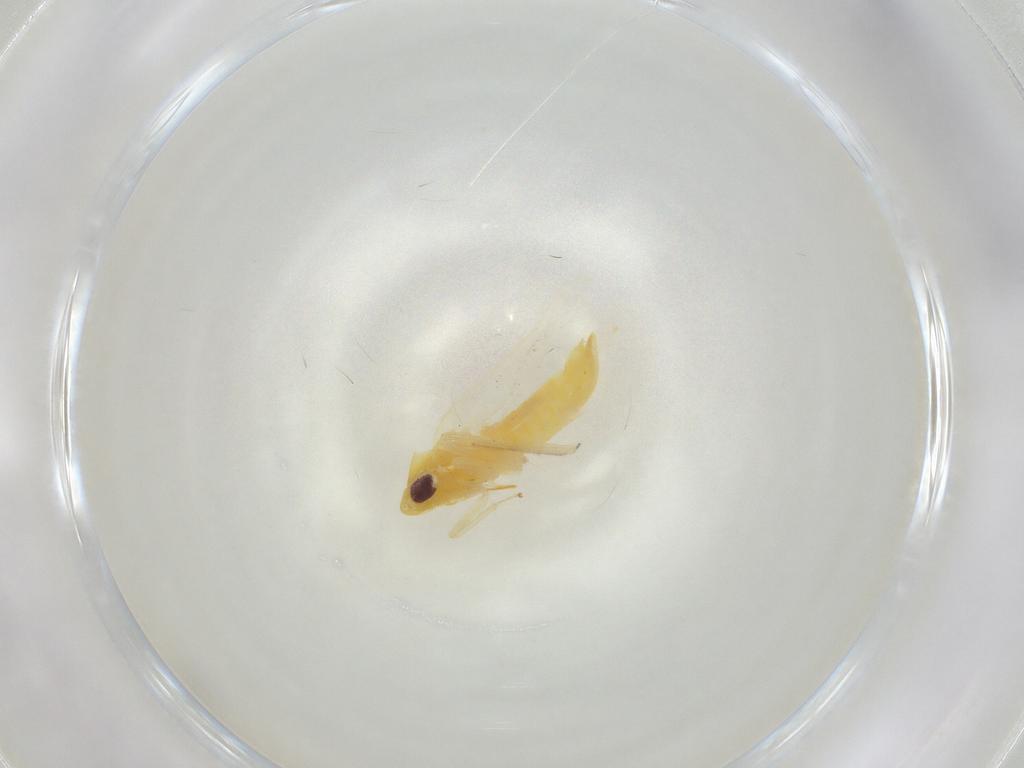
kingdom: Animalia
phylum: Arthropoda
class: Insecta
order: Hemiptera
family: Cicadellidae
